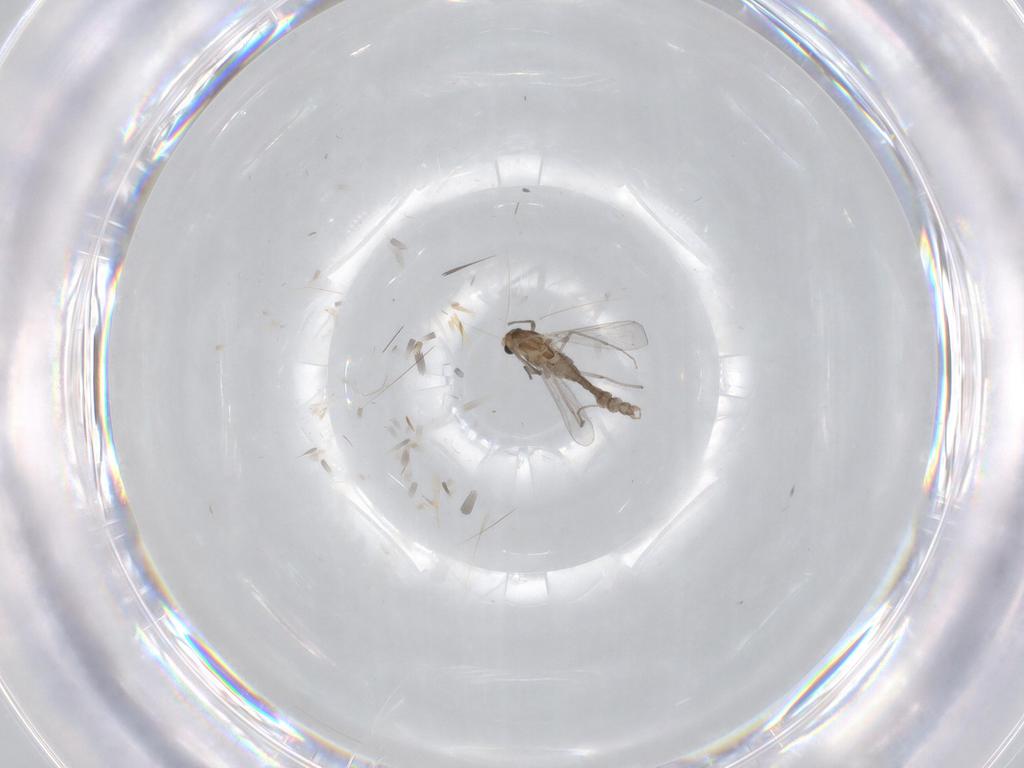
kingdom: Animalia
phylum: Arthropoda
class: Insecta
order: Diptera
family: Chironomidae
